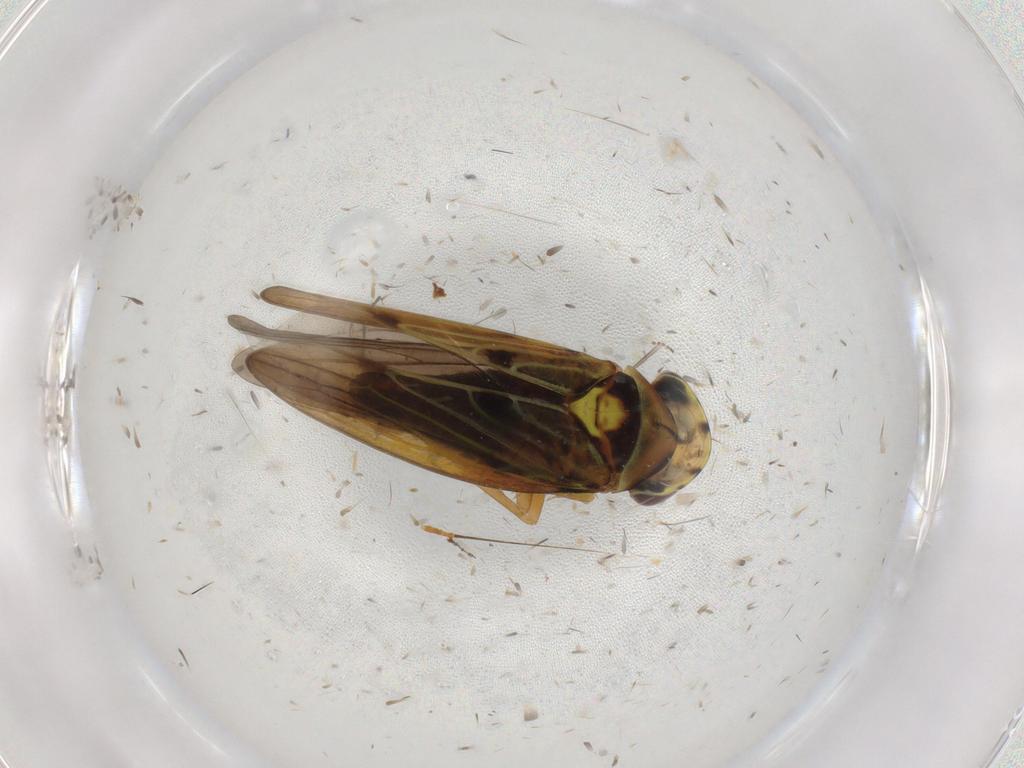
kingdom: Animalia
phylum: Arthropoda
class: Insecta
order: Hemiptera
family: Cicadellidae
